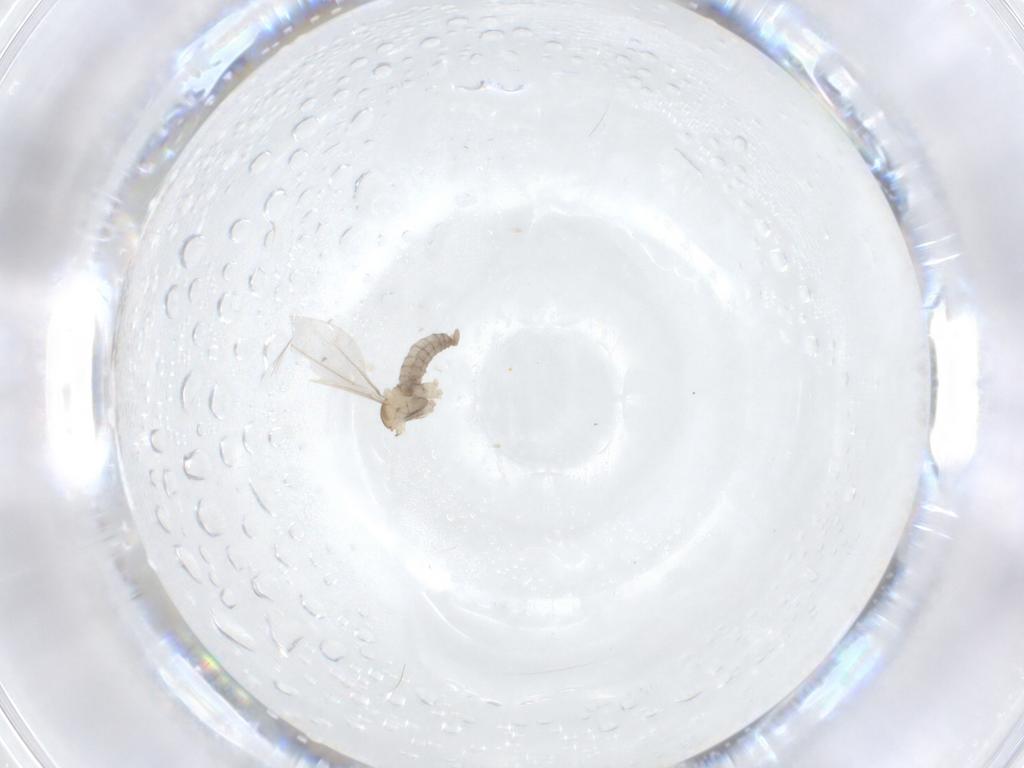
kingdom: Animalia
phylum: Arthropoda
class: Insecta
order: Diptera
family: Cecidomyiidae
